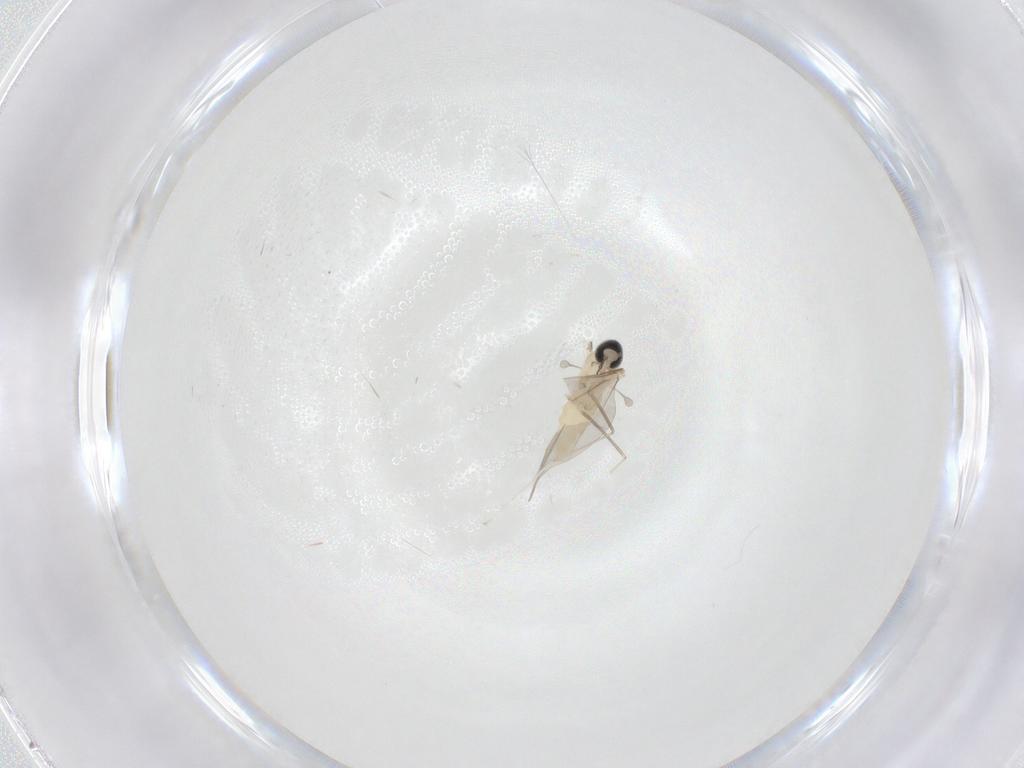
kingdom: Animalia
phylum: Arthropoda
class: Insecta
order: Diptera
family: Cecidomyiidae
